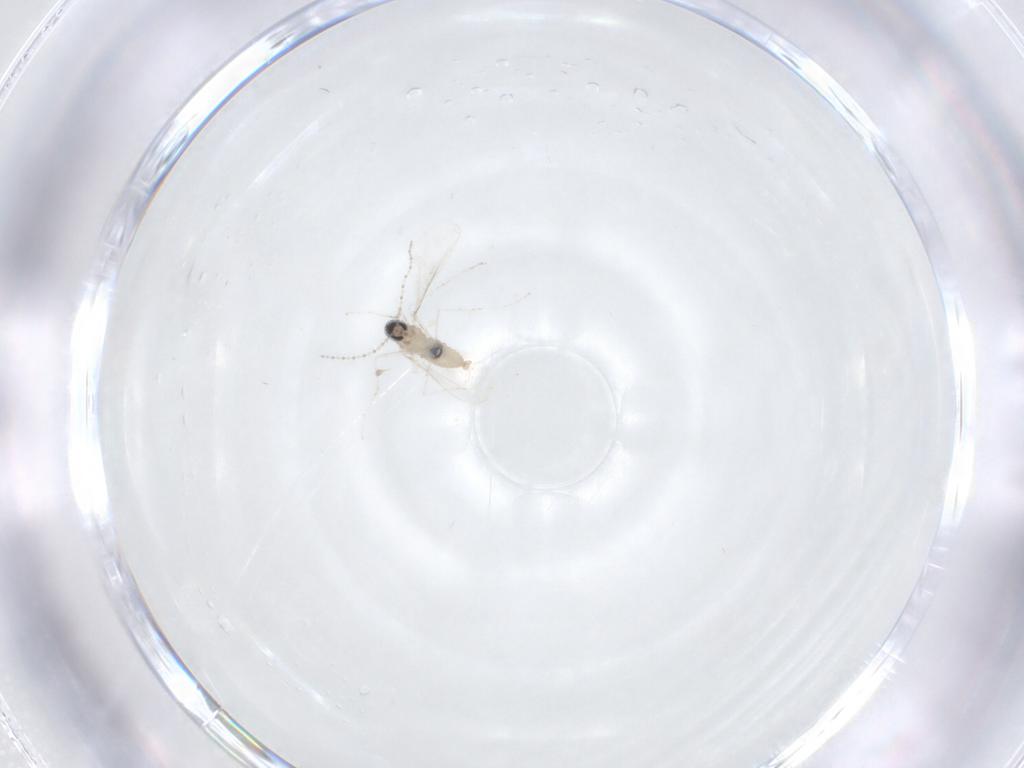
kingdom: Animalia
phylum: Arthropoda
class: Insecta
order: Diptera
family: Cecidomyiidae
